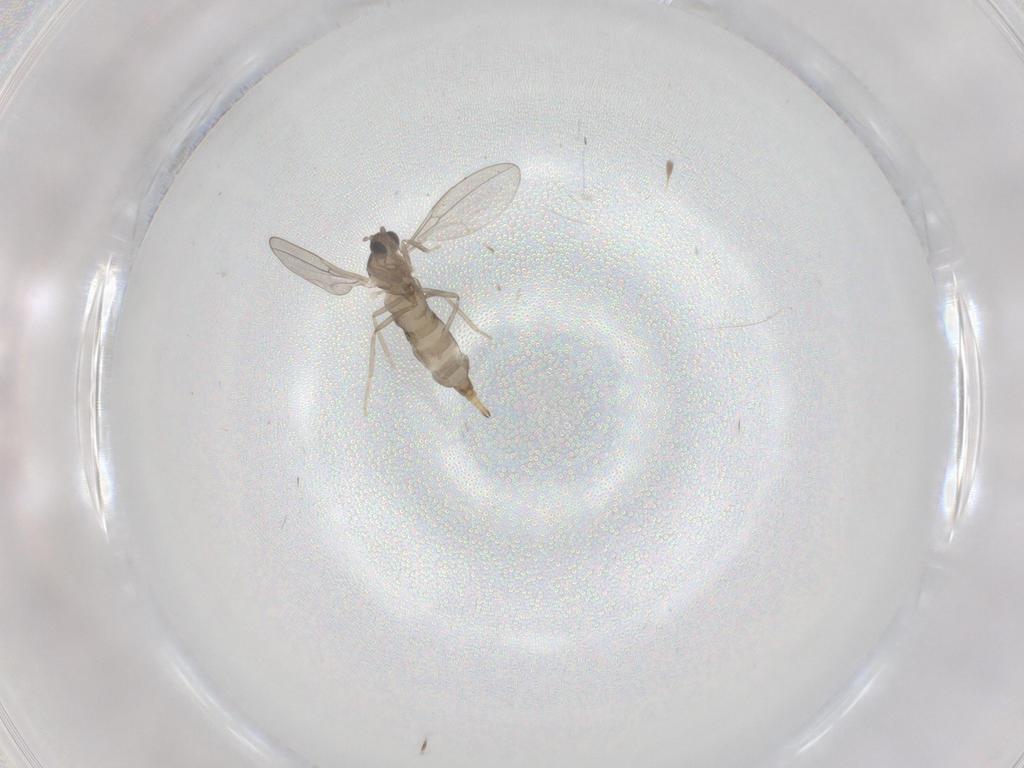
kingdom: Animalia
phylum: Arthropoda
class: Insecta
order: Diptera
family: Cecidomyiidae
